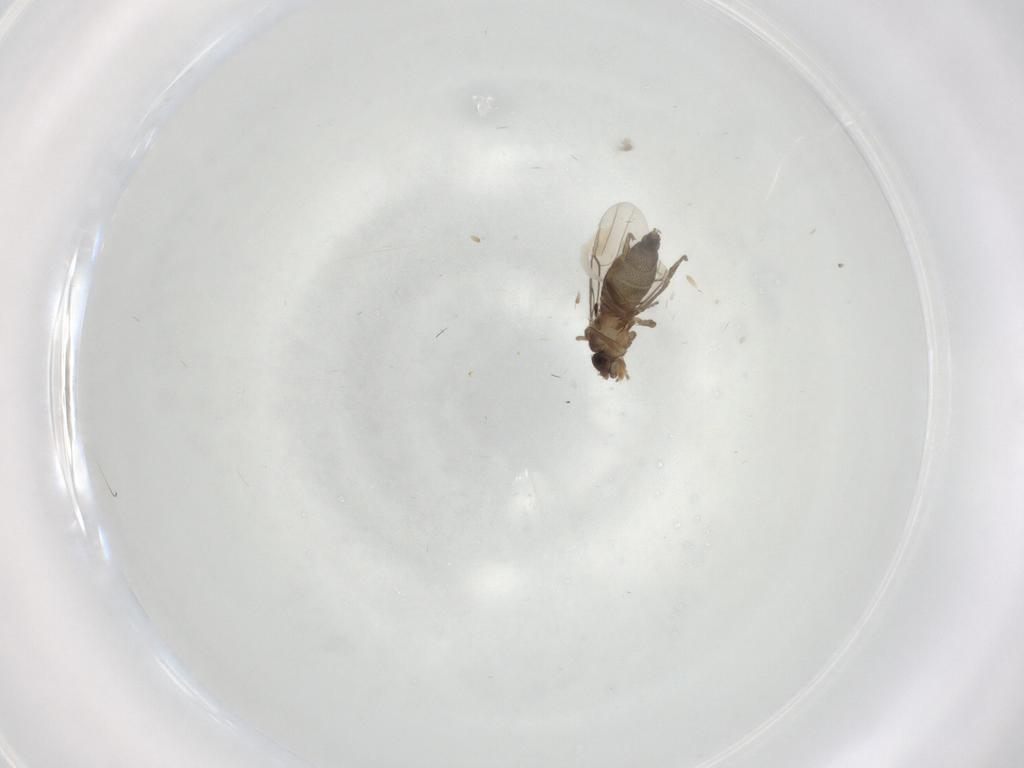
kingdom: Animalia
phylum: Arthropoda
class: Insecta
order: Diptera
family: Phoridae
